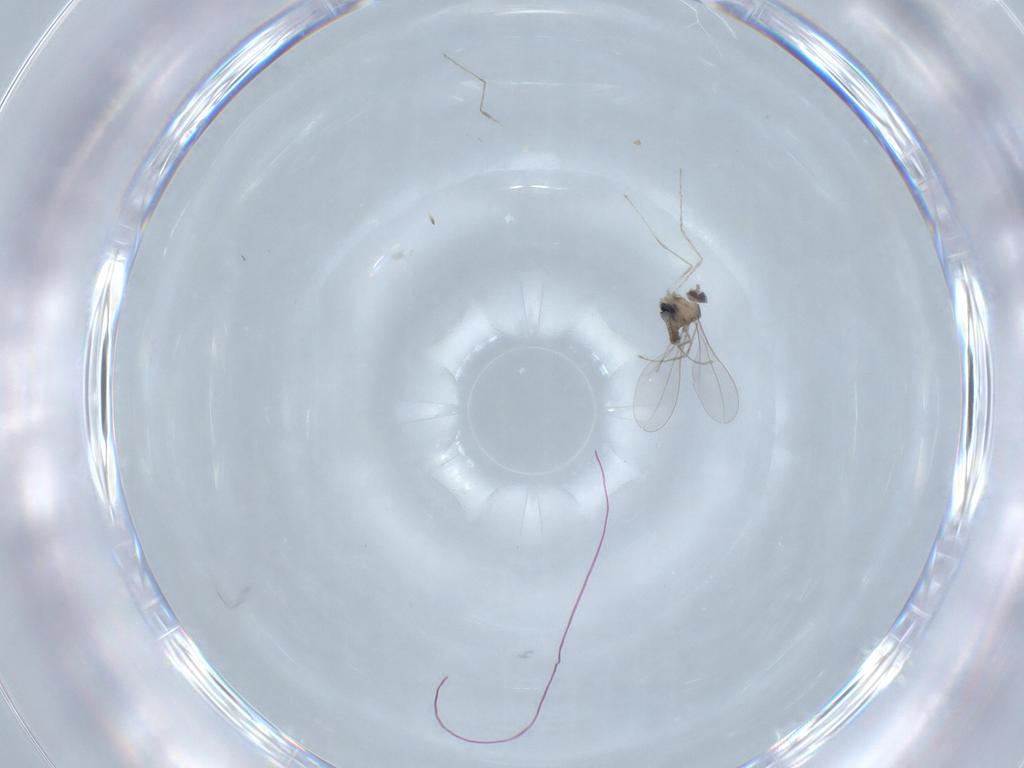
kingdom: Animalia
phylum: Arthropoda
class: Insecta
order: Diptera
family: Cecidomyiidae
